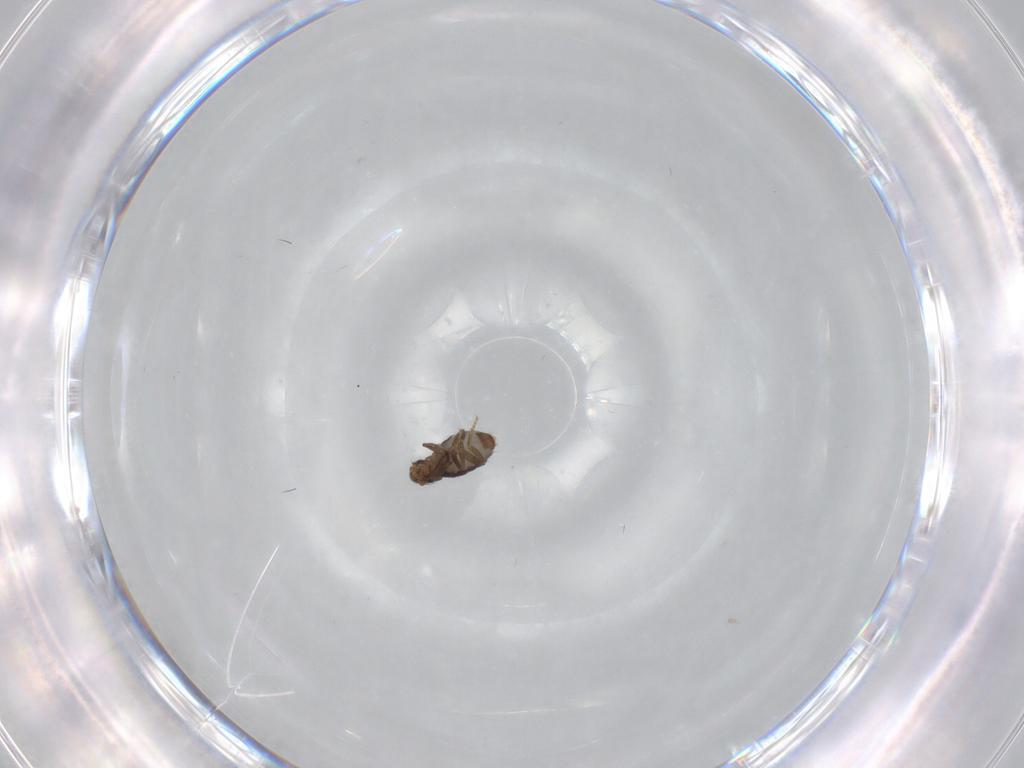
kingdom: Animalia
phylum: Arthropoda
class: Insecta
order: Diptera
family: Phoridae
